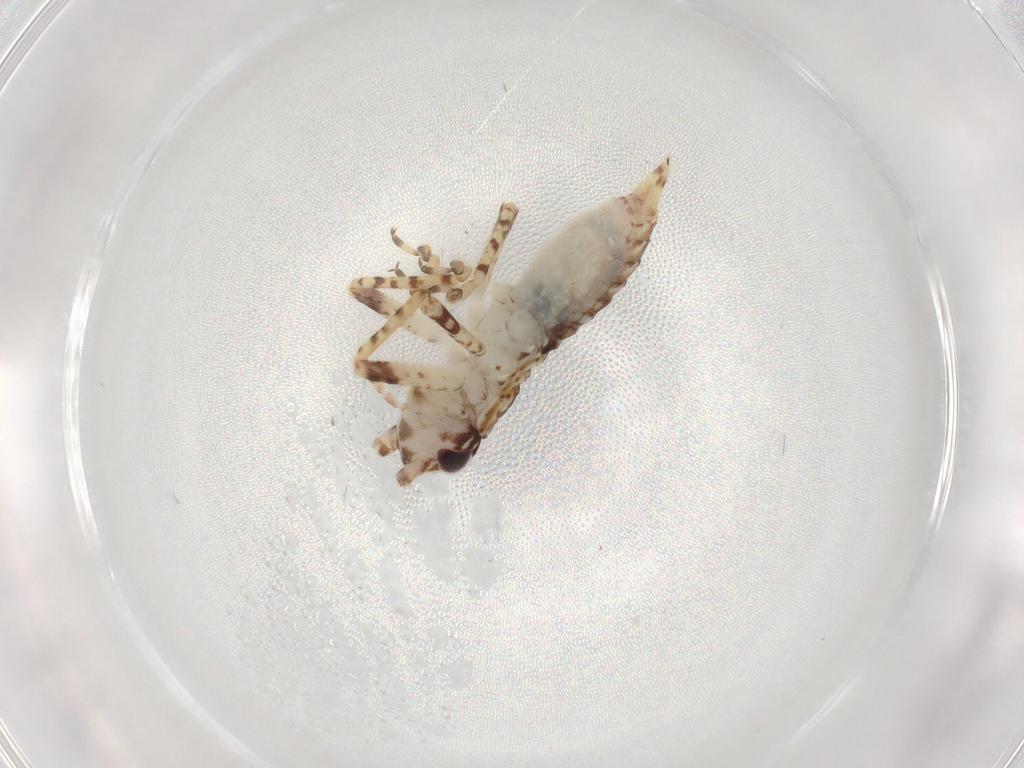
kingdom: Animalia
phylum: Arthropoda
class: Insecta
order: Orthoptera
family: Gryllidae
